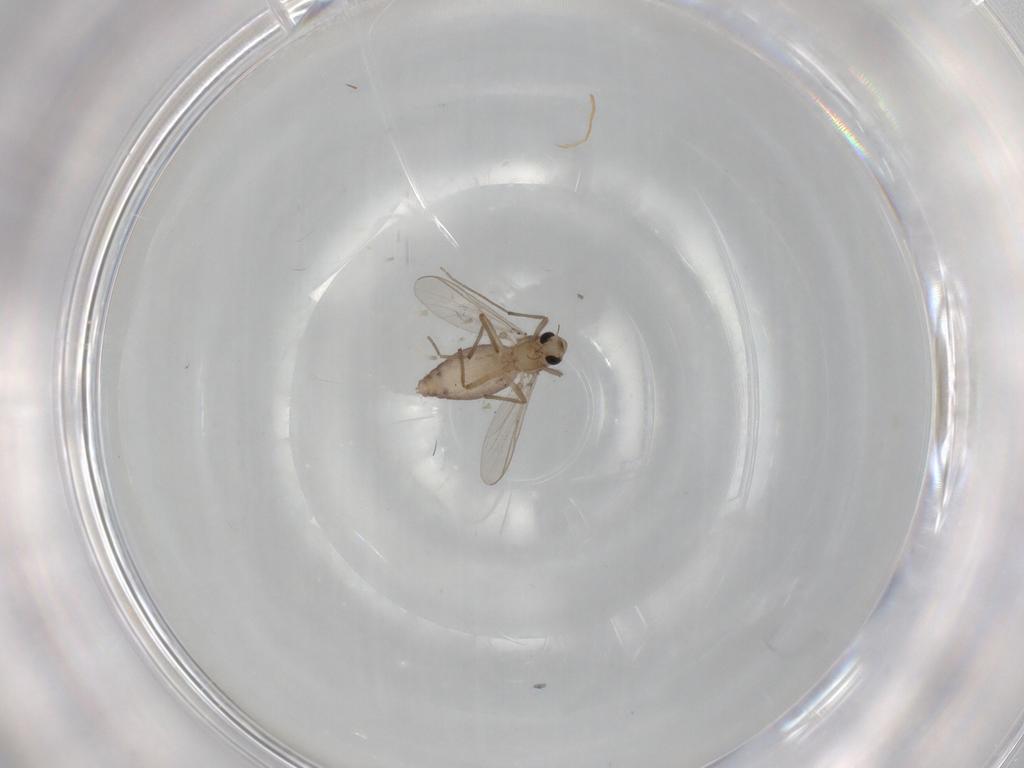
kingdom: Animalia
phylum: Arthropoda
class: Insecta
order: Diptera
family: Chironomidae
